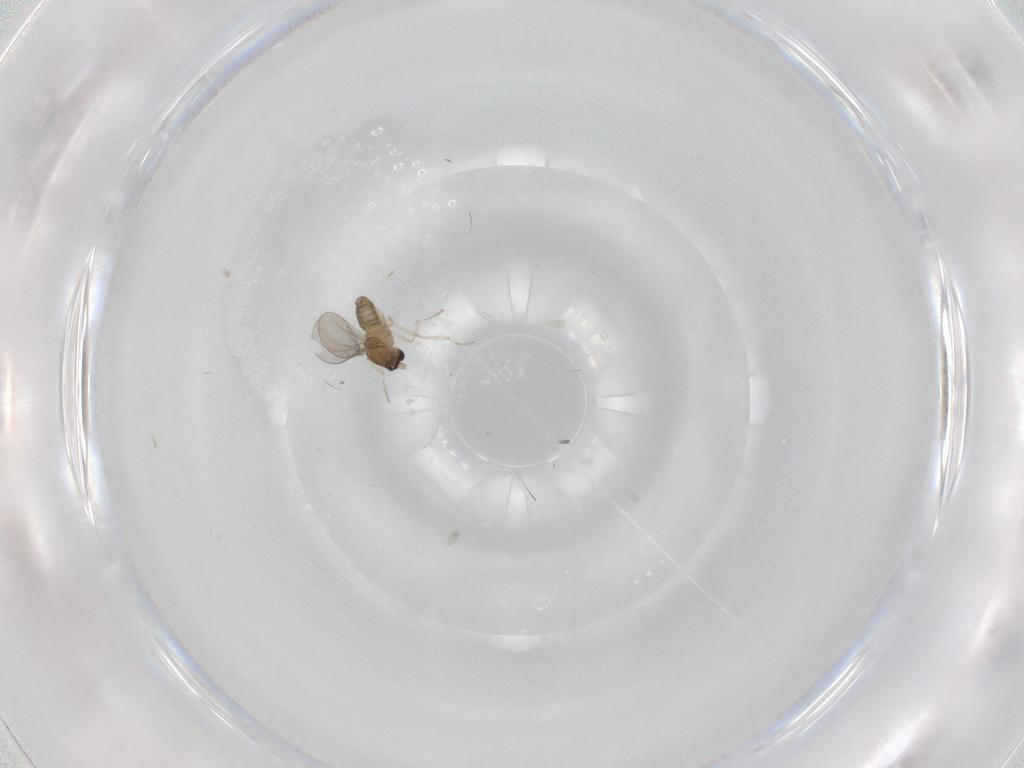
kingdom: Animalia
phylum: Arthropoda
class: Insecta
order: Diptera
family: Cecidomyiidae
